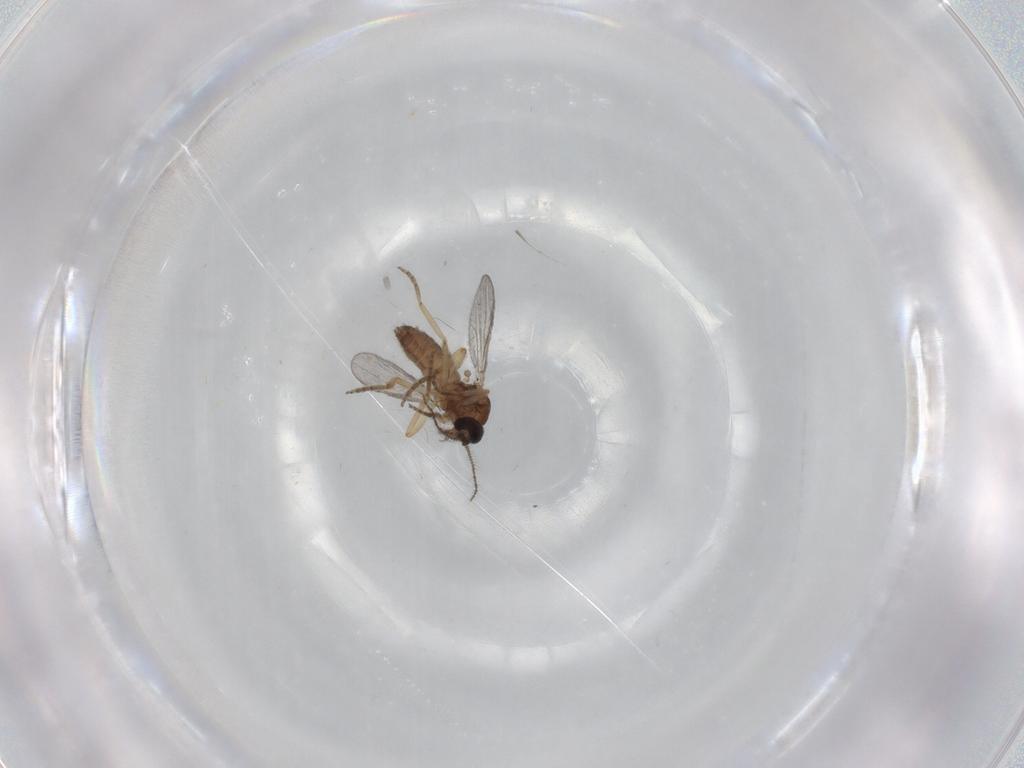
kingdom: Animalia
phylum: Arthropoda
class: Insecta
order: Diptera
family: Ceratopogonidae
